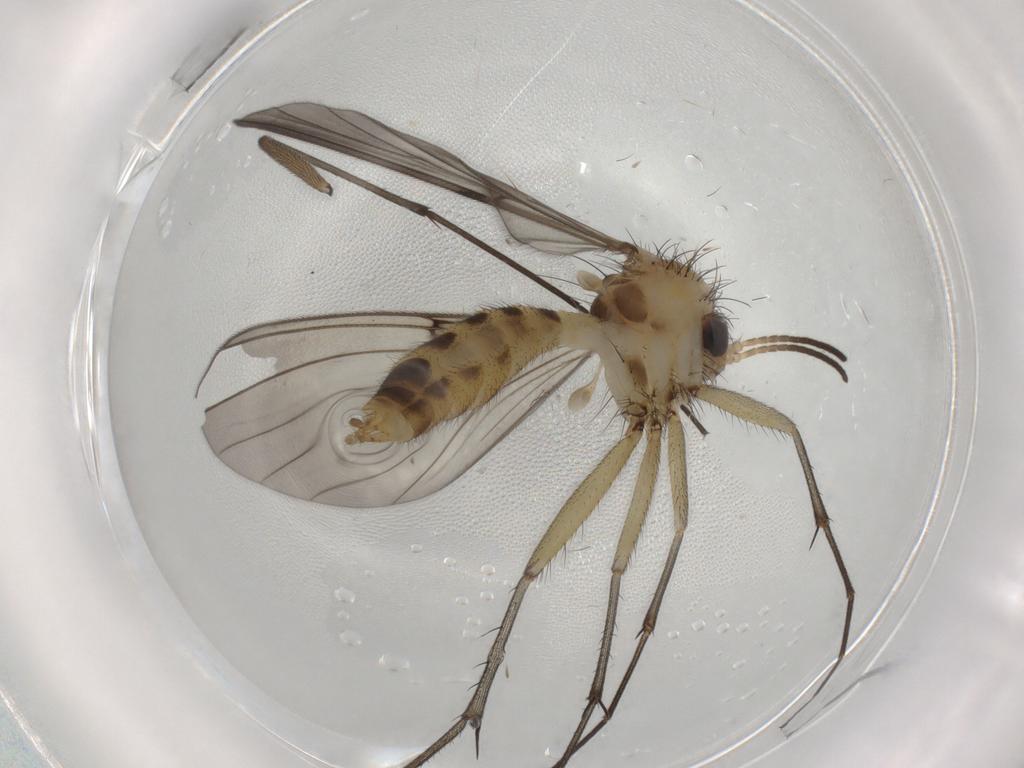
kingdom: Animalia
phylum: Arthropoda
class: Insecta
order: Diptera
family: Mycetophilidae
